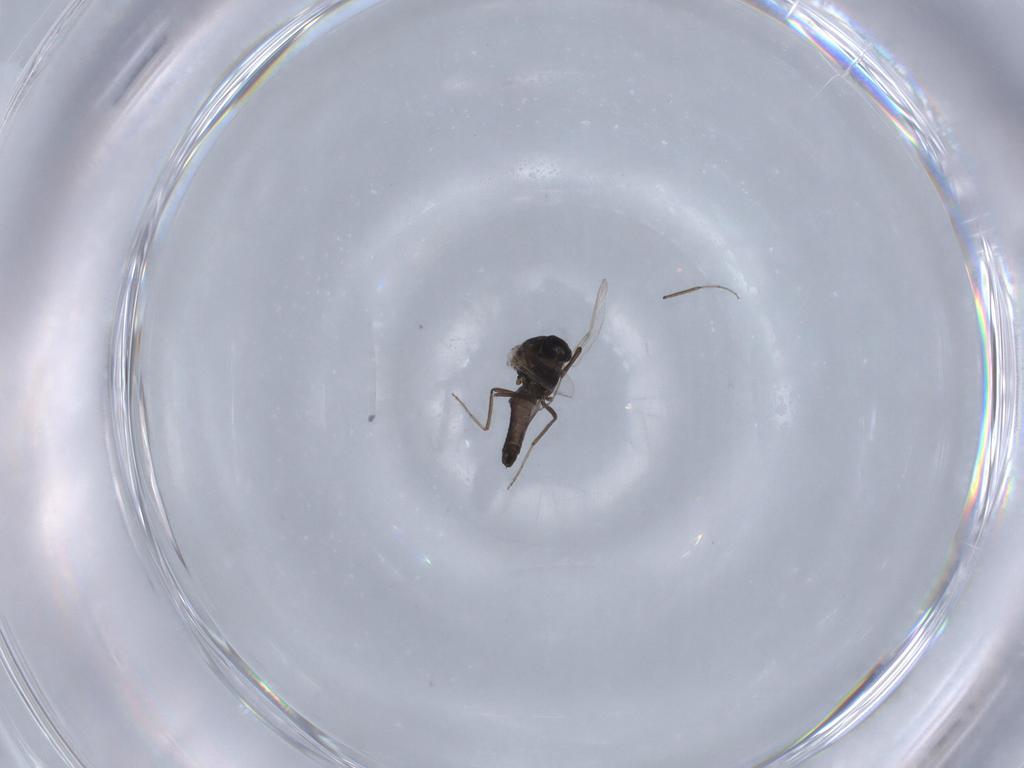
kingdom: Animalia
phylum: Arthropoda
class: Insecta
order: Diptera
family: Ceratopogonidae
